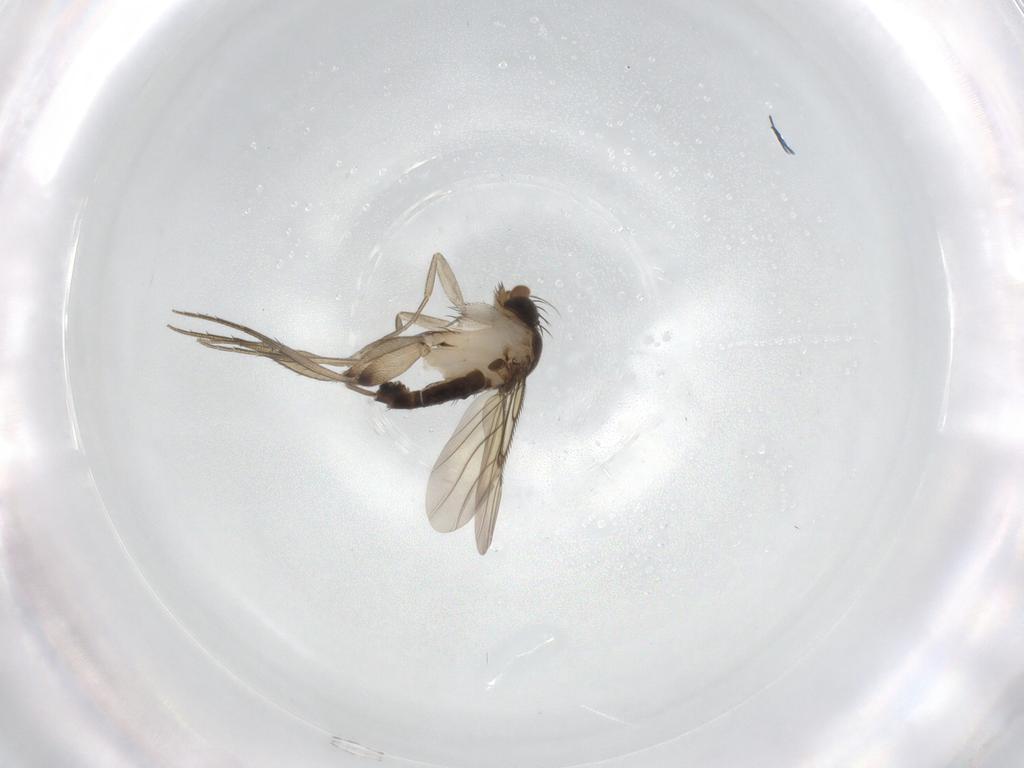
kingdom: Animalia
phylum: Arthropoda
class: Insecta
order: Diptera
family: Phoridae
